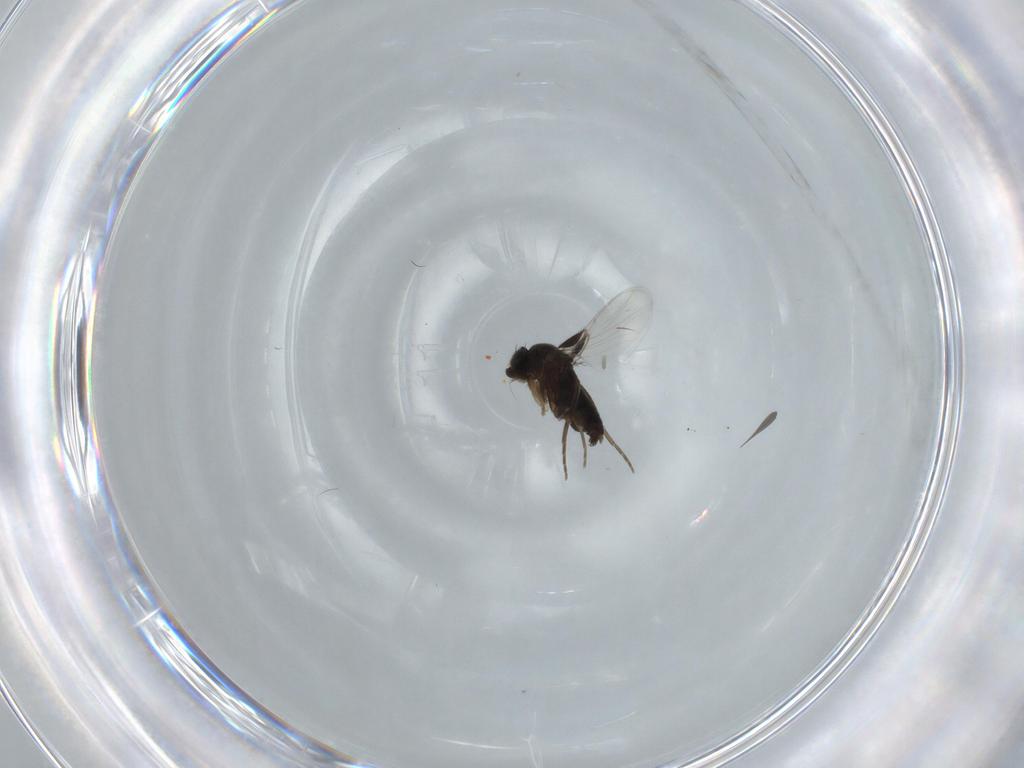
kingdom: Animalia
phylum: Arthropoda
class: Insecta
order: Diptera
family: Phoridae
